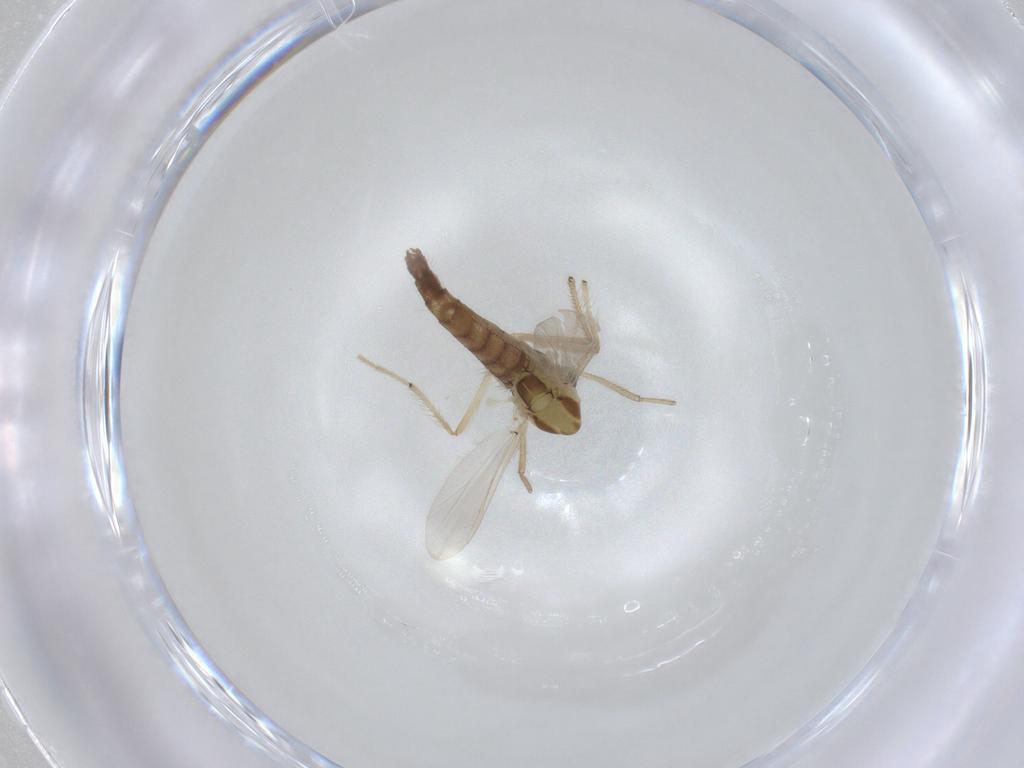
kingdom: Animalia
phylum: Arthropoda
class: Insecta
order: Diptera
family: Chironomidae
